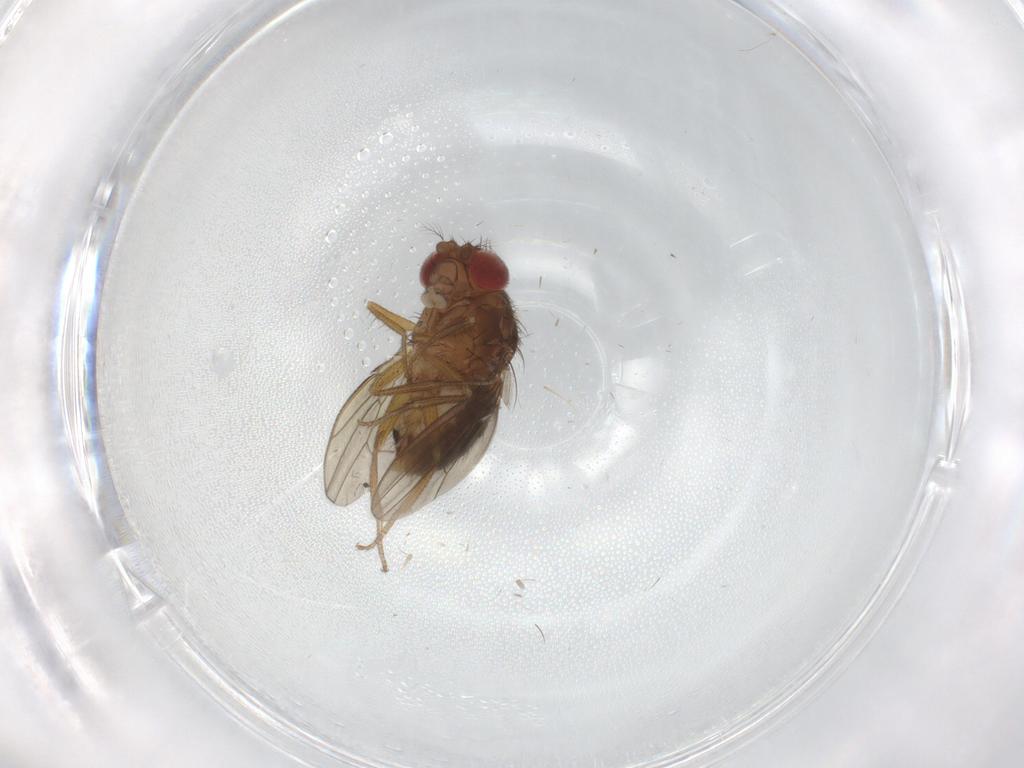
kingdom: Animalia
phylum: Arthropoda
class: Insecta
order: Diptera
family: Drosophilidae
